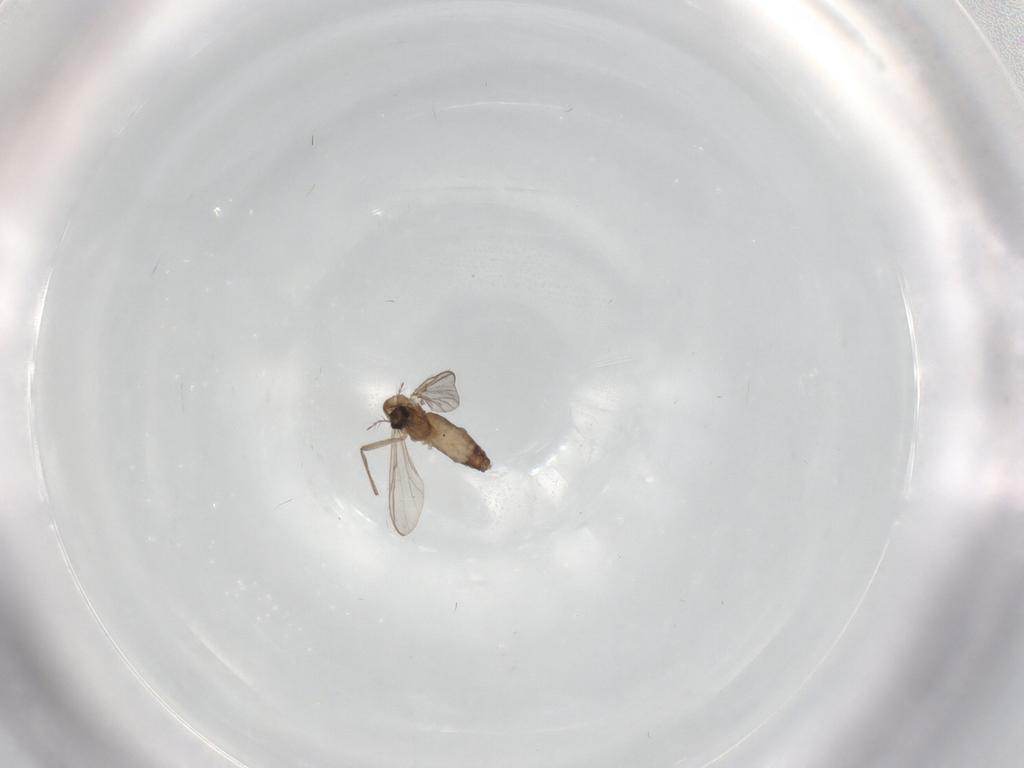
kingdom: Animalia
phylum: Arthropoda
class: Insecta
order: Diptera
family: Chironomidae
